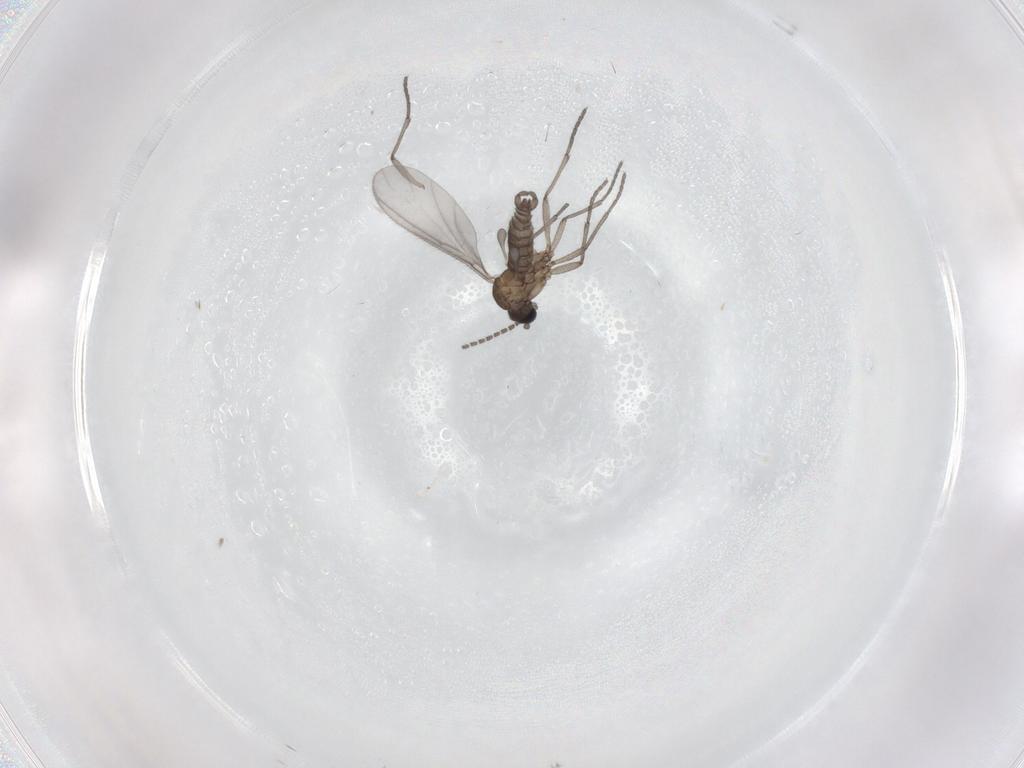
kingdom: Animalia
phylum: Arthropoda
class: Insecta
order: Diptera
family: Sciaridae
